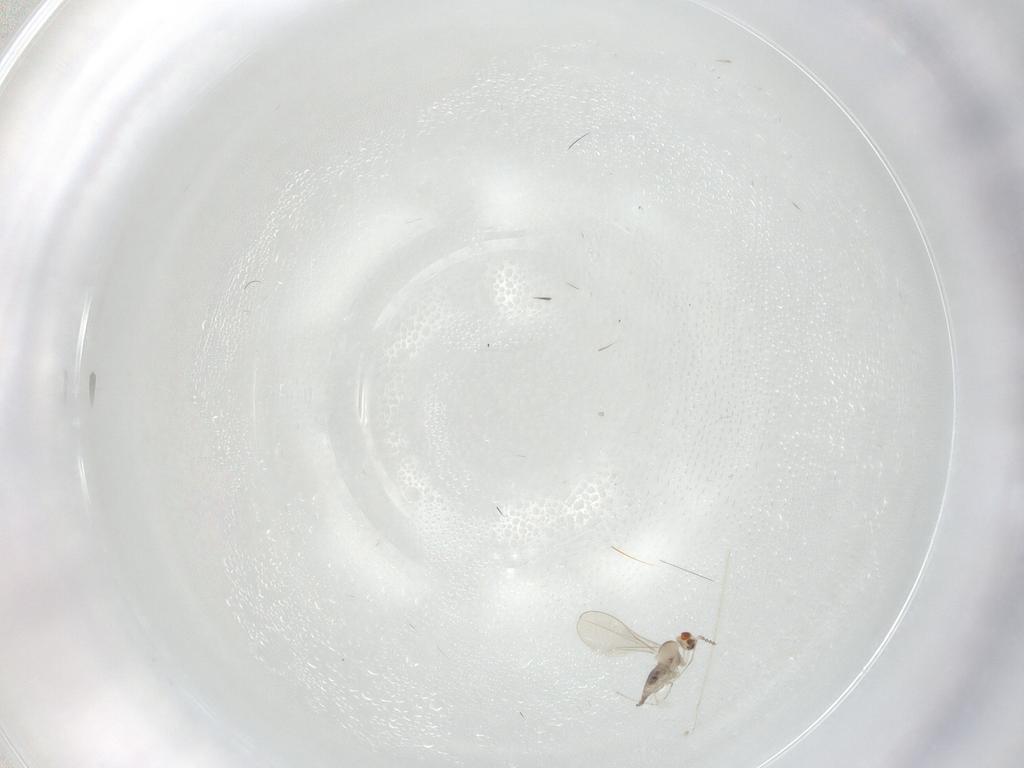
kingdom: Animalia
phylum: Arthropoda
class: Insecta
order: Diptera
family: Cecidomyiidae
